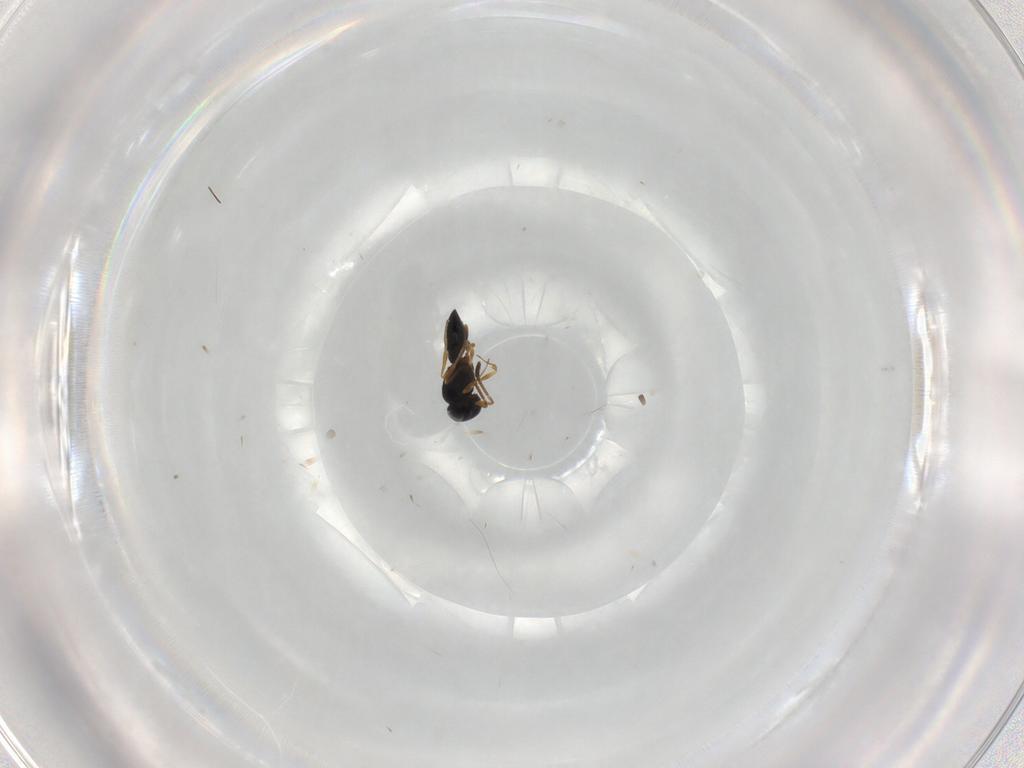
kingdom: Animalia
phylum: Arthropoda
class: Insecta
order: Hymenoptera
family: Scelionidae
